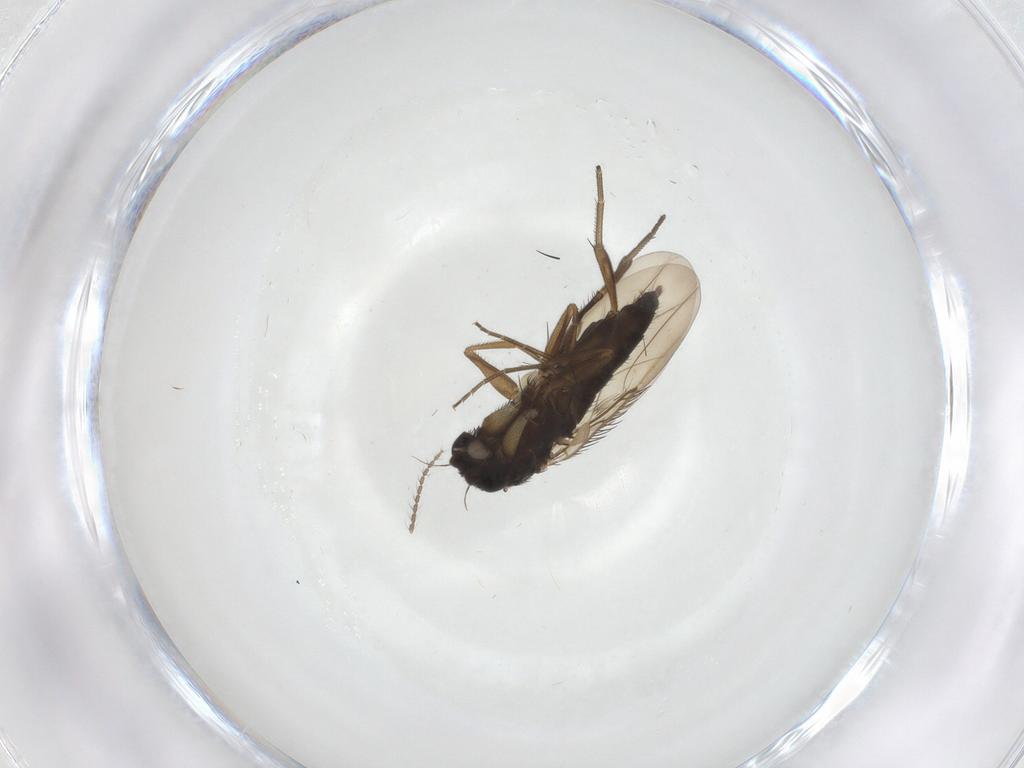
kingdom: Animalia
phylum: Arthropoda
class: Insecta
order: Diptera
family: Heleomyzidae
